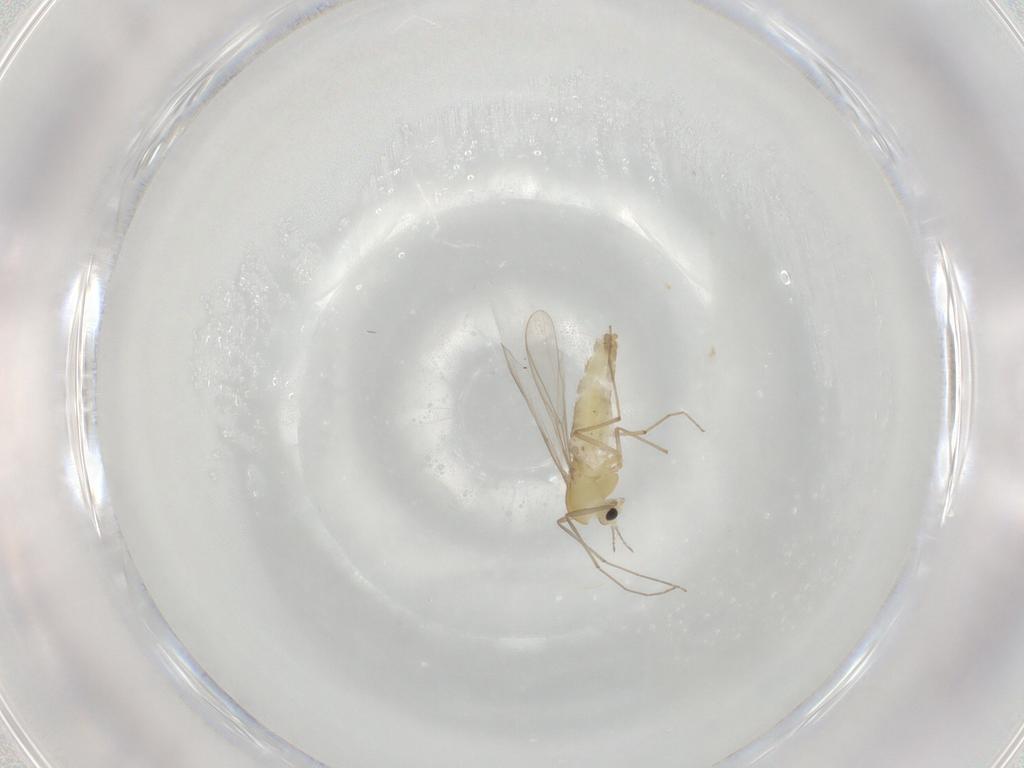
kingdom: Animalia
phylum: Arthropoda
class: Insecta
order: Diptera
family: Chironomidae
